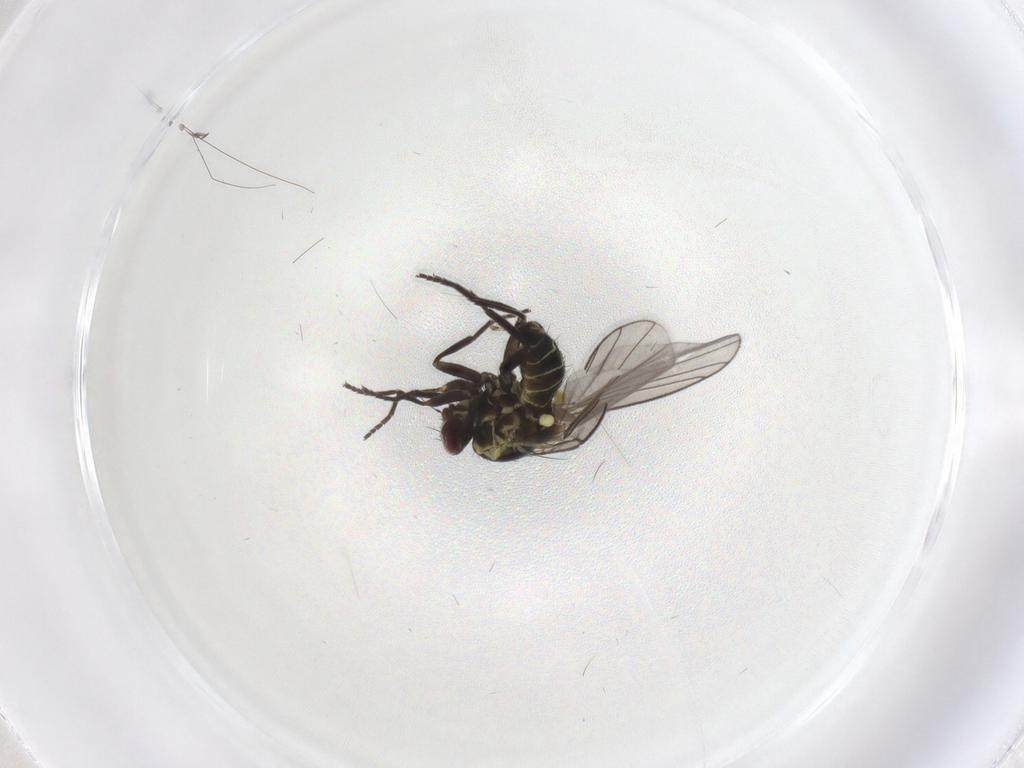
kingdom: Animalia
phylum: Arthropoda
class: Insecta
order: Diptera
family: Agromyzidae
